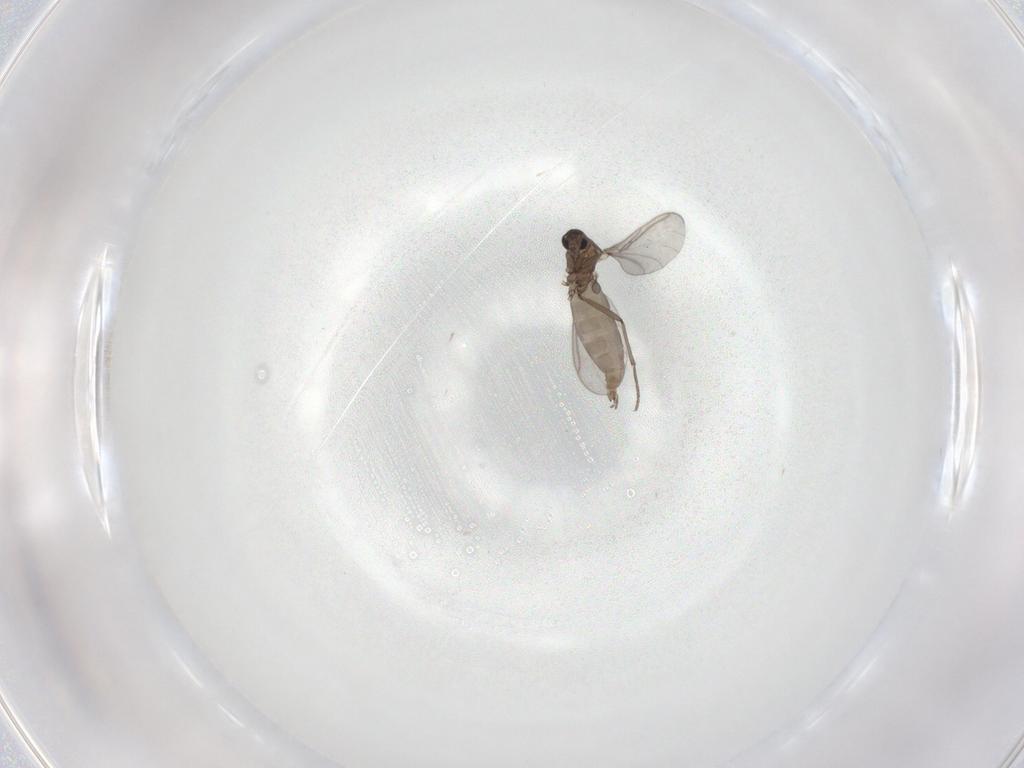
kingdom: Animalia
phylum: Arthropoda
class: Insecta
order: Diptera
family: Sciaridae
